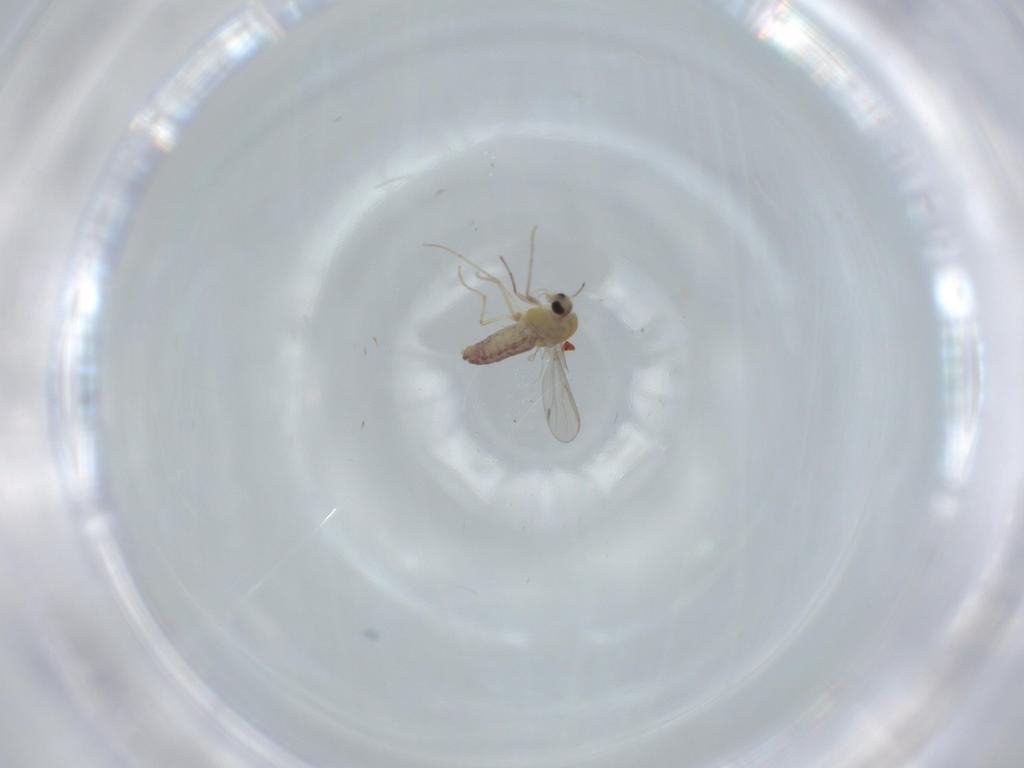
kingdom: Animalia
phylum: Arthropoda
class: Insecta
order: Diptera
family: Chironomidae
